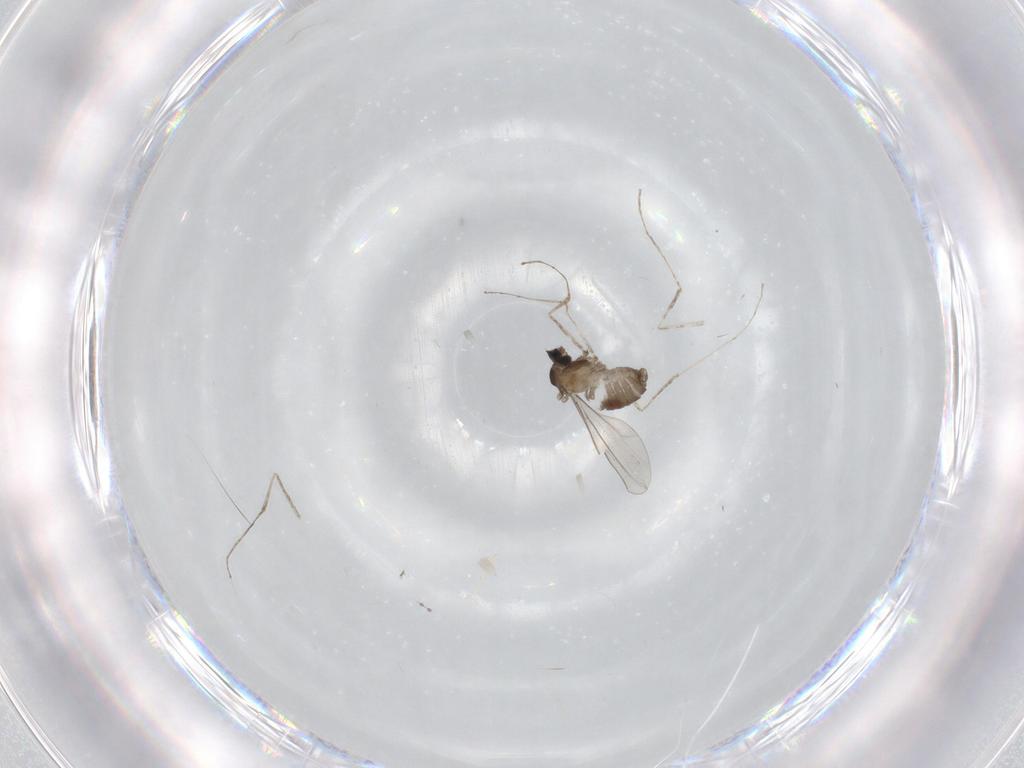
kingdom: Animalia
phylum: Arthropoda
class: Insecta
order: Diptera
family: Cecidomyiidae
